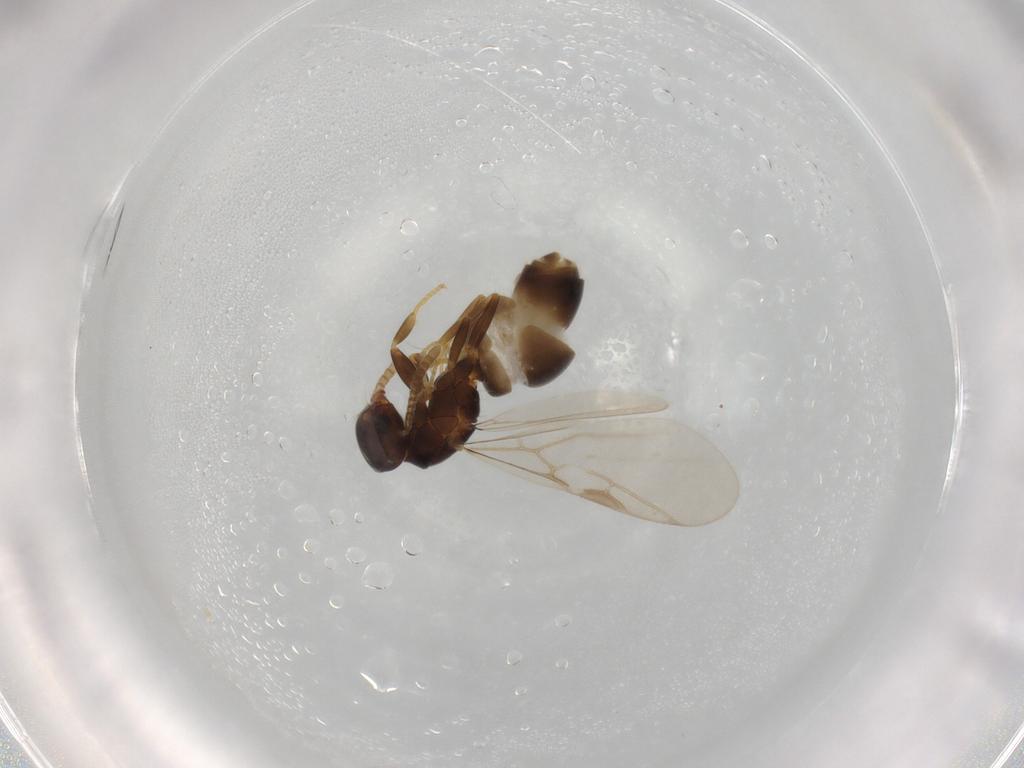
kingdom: Animalia
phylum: Arthropoda
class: Insecta
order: Hymenoptera
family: Formicidae
